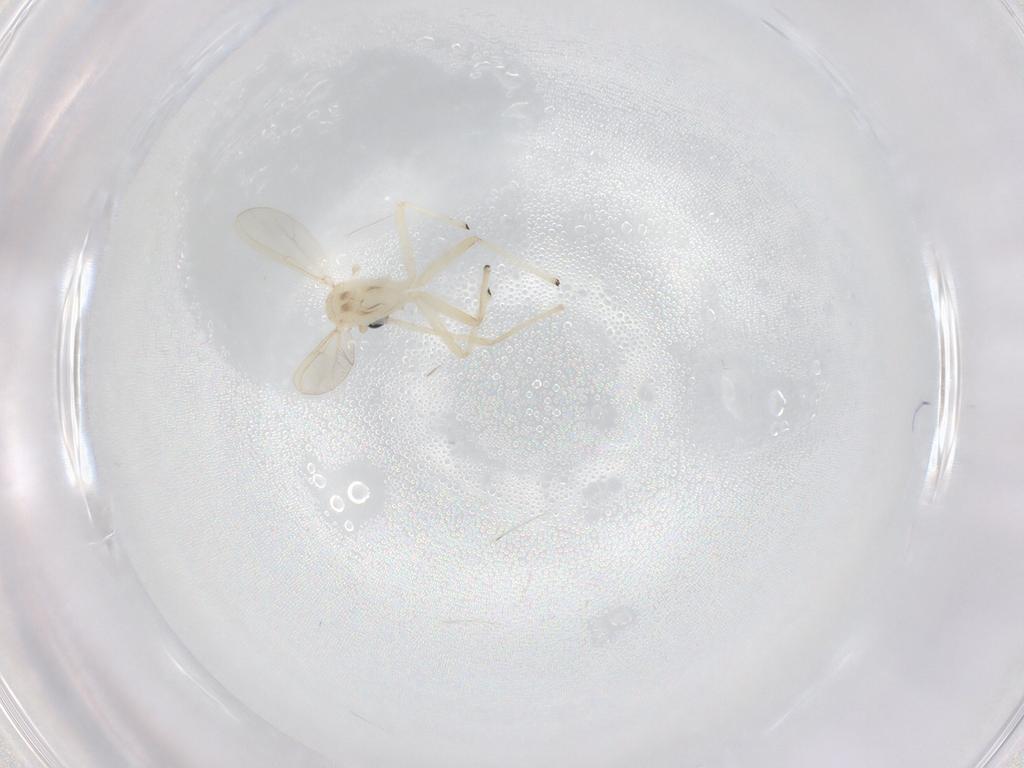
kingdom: Animalia
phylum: Arthropoda
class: Insecta
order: Diptera
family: Chironomidae
